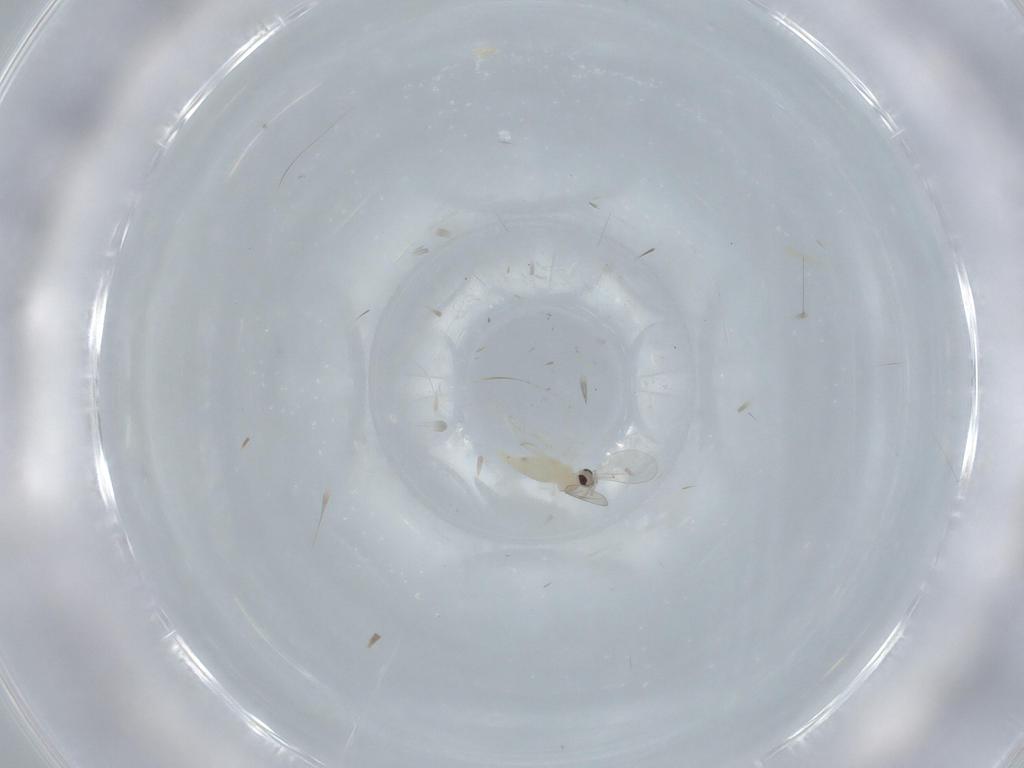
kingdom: Animalia
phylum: Arthropoda
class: Insecta
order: Diptera
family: Cecidomyiidae
